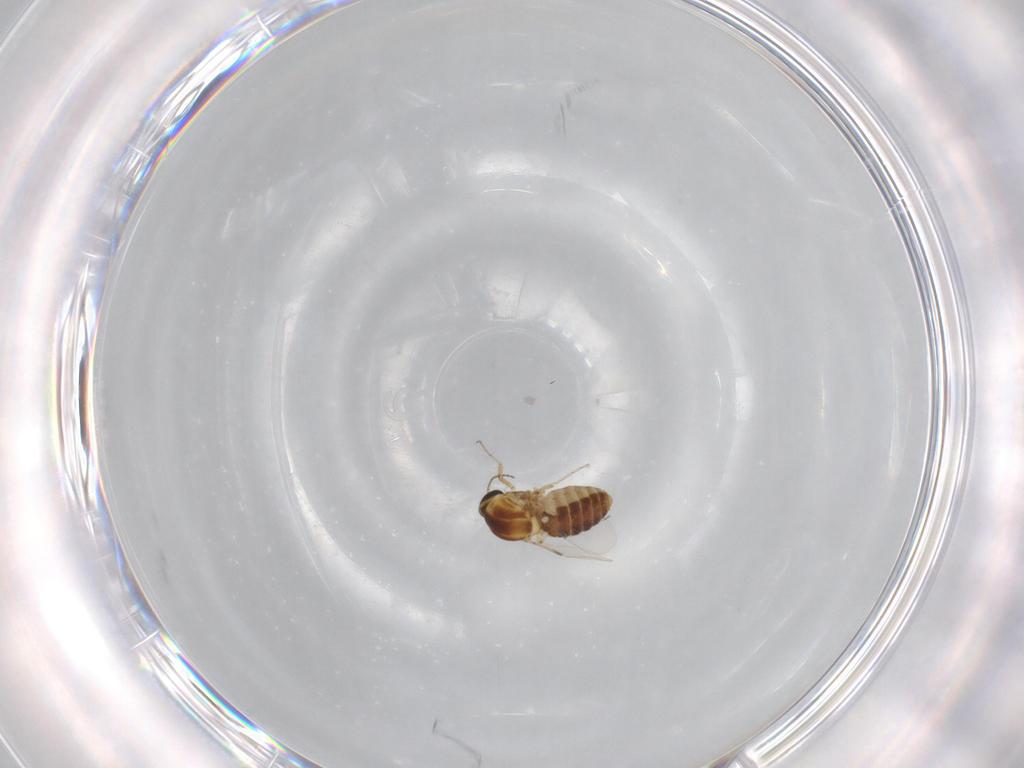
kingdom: Animalia
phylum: Arthropoda
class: Insecta
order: Diptera
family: Ceratopogonidae
